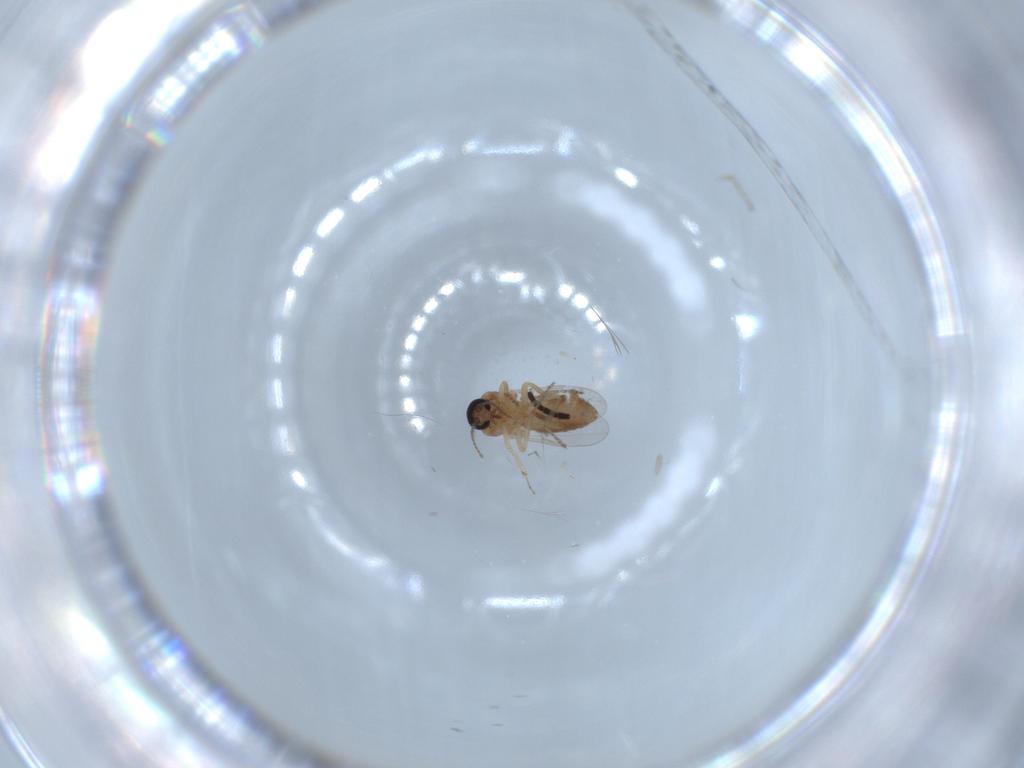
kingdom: Animalia
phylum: Arthropoda
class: Insecta
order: Diptera
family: Ceratopogonidae
